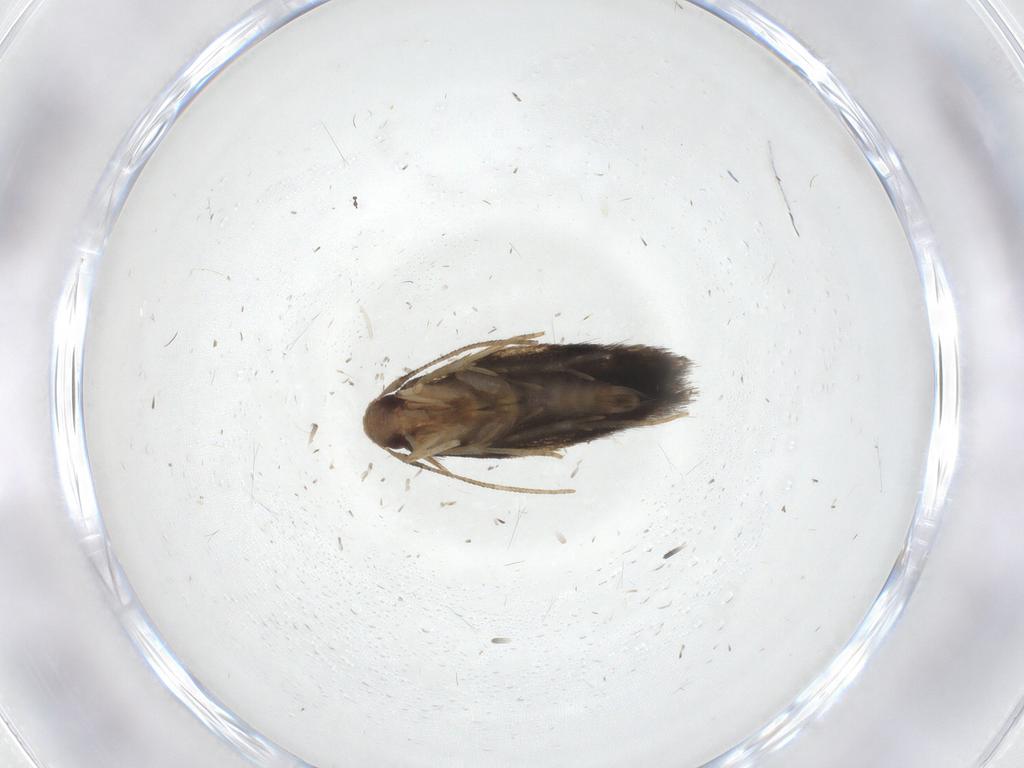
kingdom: Animalia
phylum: Arthropoda
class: Insecta
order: Lepidoptera
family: Gelechiidae
